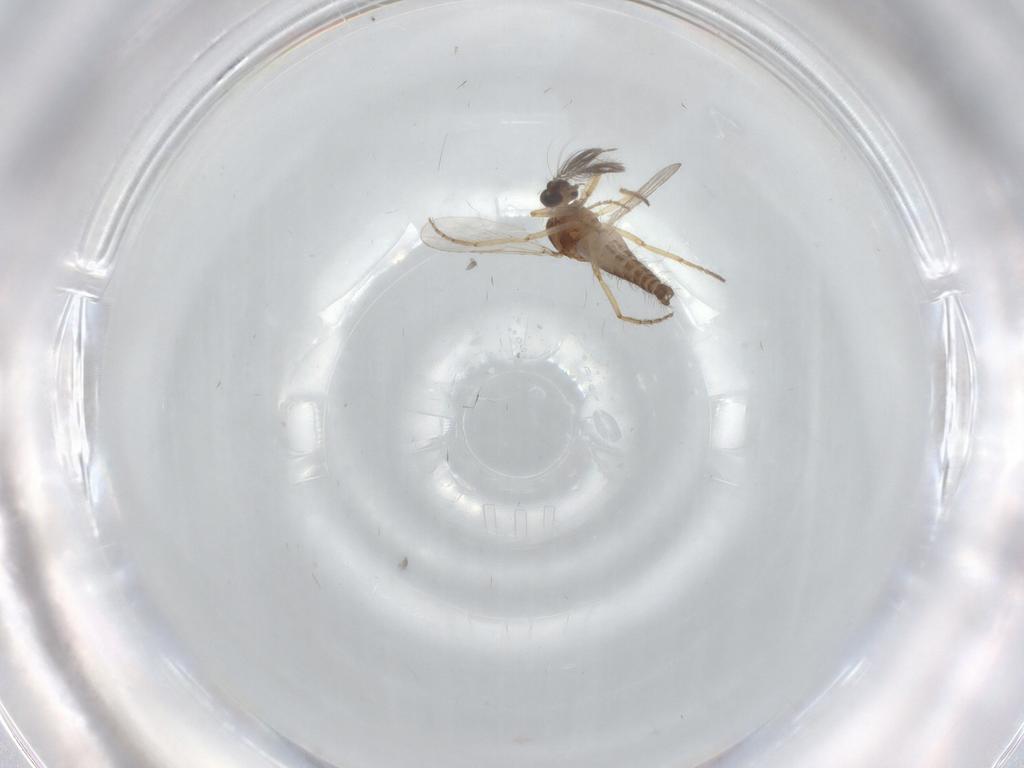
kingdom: Animalia
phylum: Arthropoda
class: Insecta
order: Diptera
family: Ceratopogonidae
